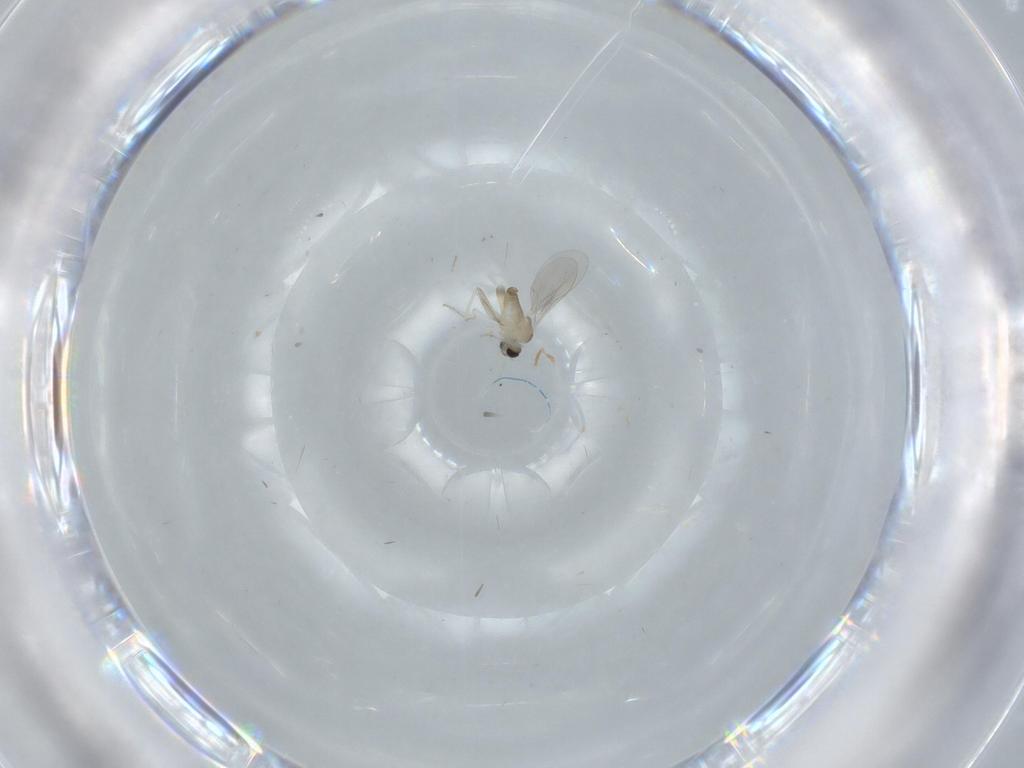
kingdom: Animalia
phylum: Arthropoda
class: Insecta
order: Diptera
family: Cecidomyiidae
